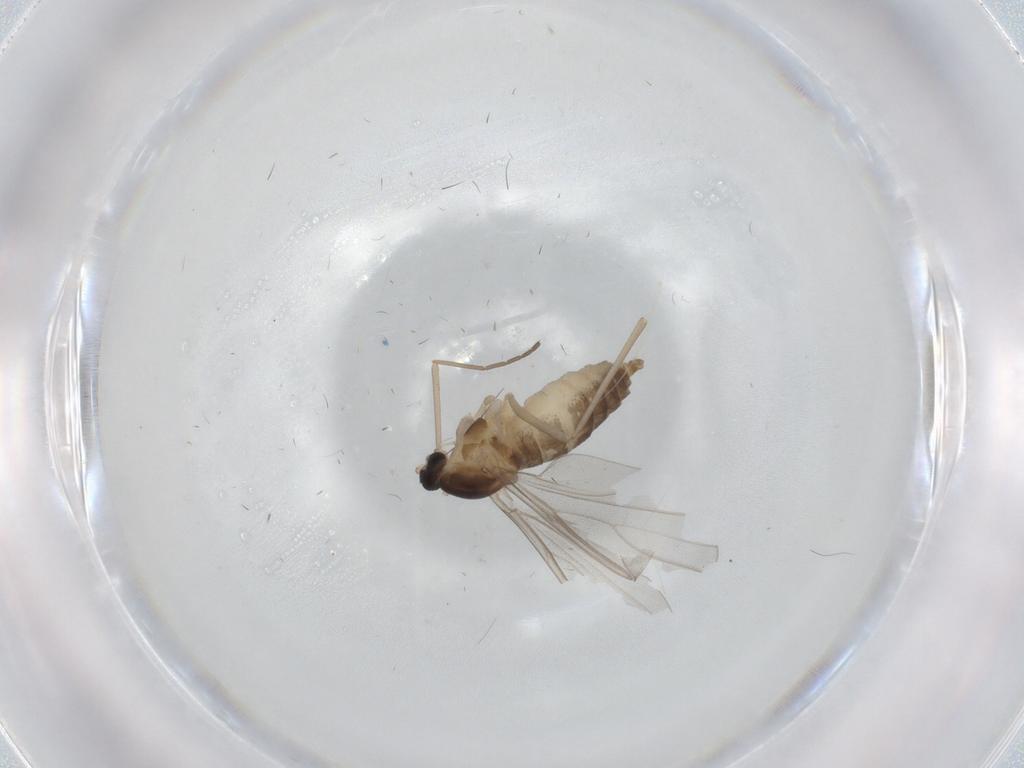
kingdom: Animalia
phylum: Arthropoda
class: Insecta
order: Diptera
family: Cecidomyiidae
